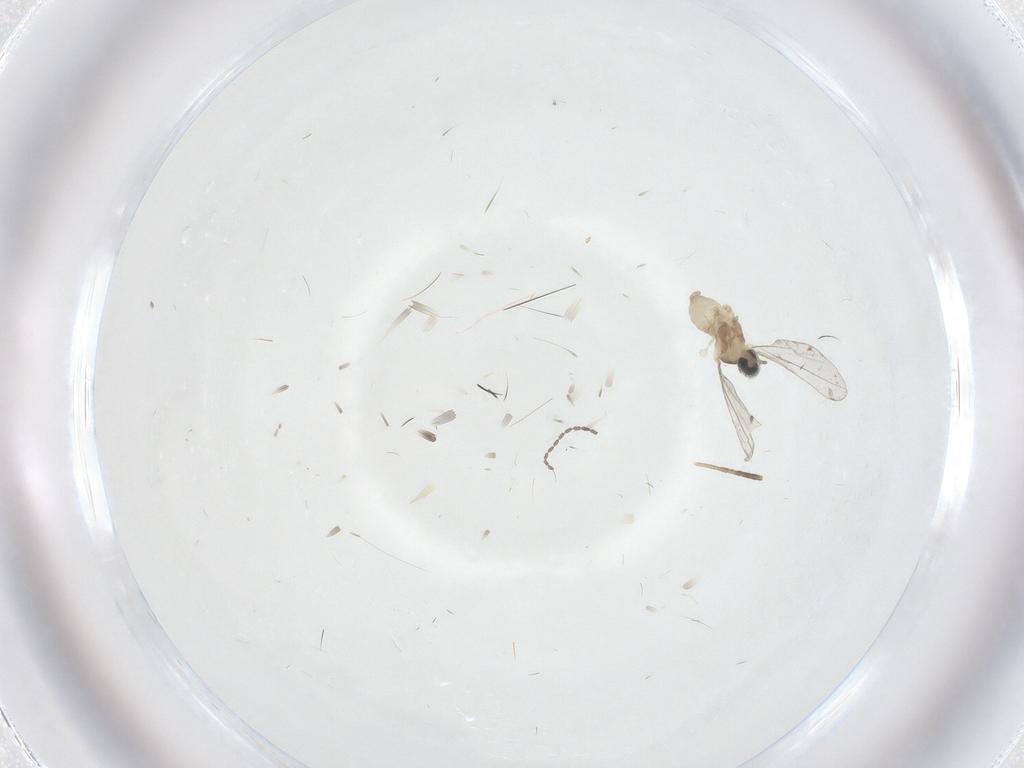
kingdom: Animalia
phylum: Arthropoda
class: Insecta
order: Diptera
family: Cecidomyiidae
